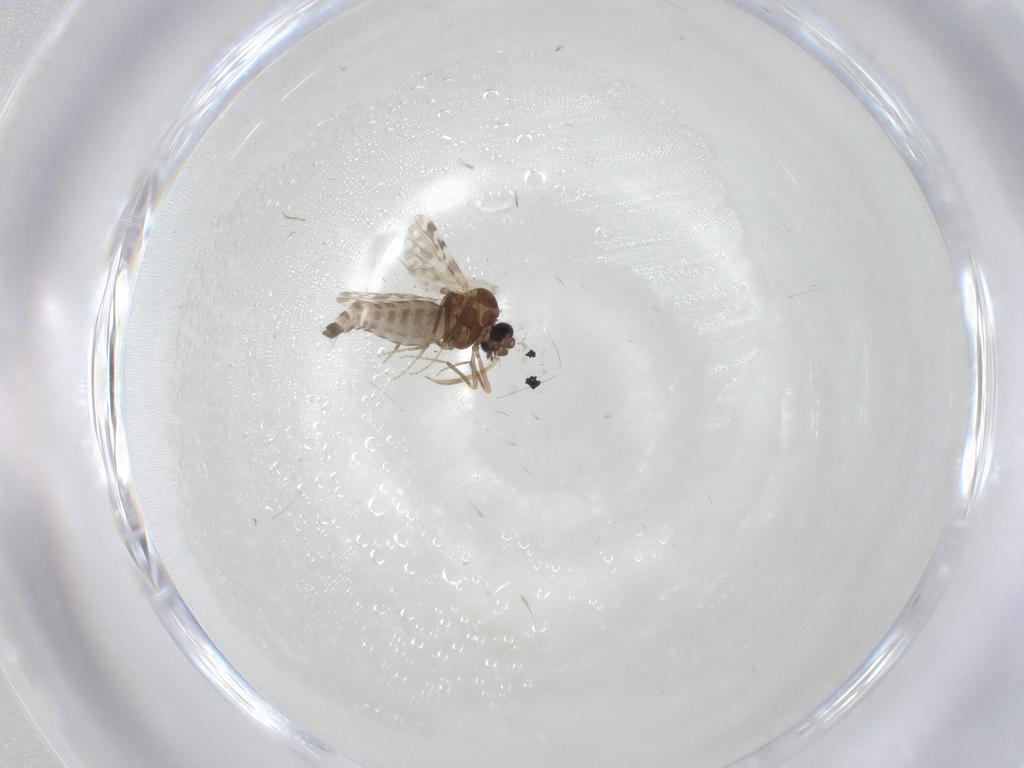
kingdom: Animalia
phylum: Arthropoda
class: Insecta
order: Diptera
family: Ceratopogonidae
